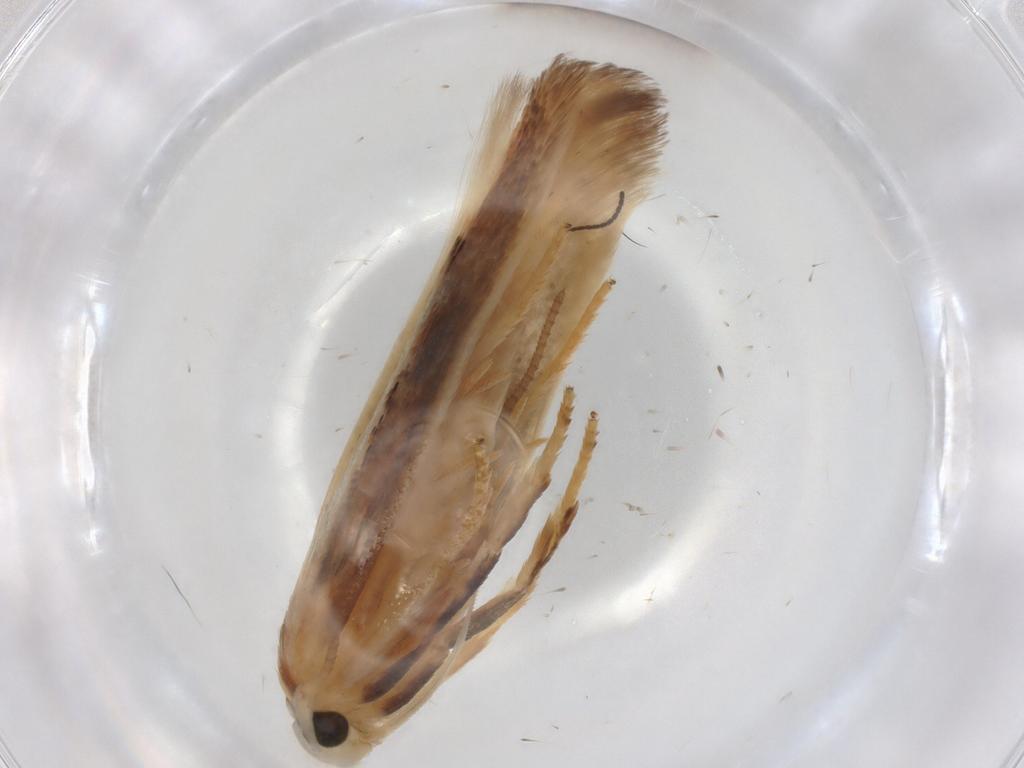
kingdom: Animalia
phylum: Arthropoda
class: Insecta
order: Lepidoptera
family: Geometridae
